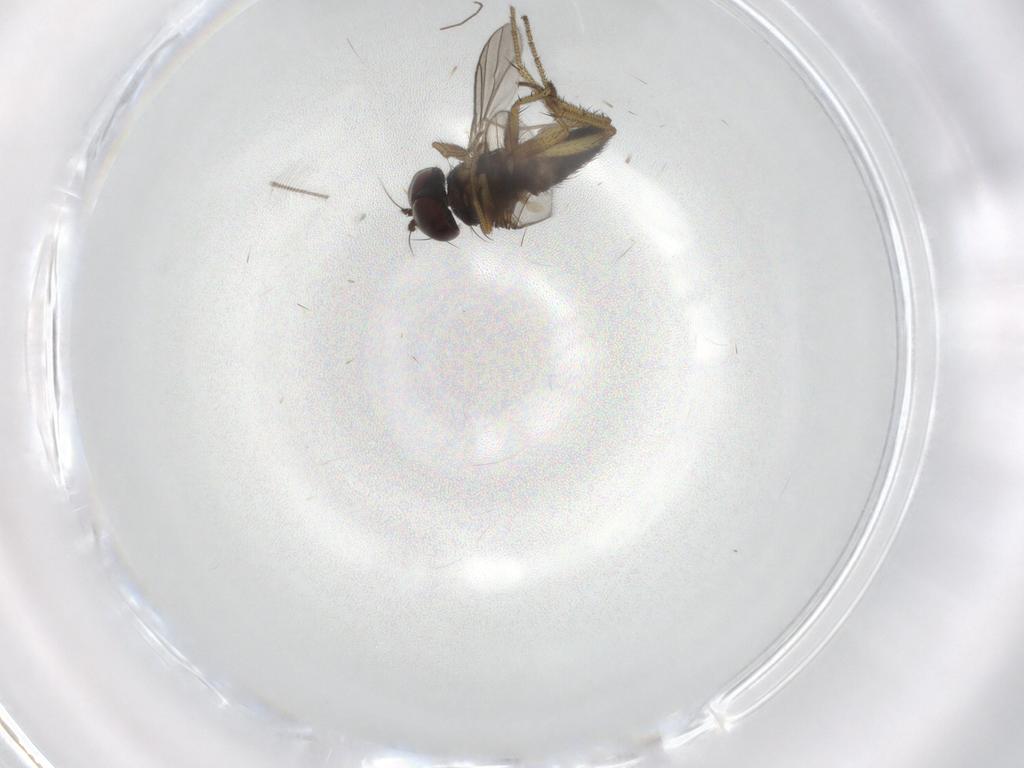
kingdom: Animalia
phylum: Arthropoda
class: Insecta
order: Diptera
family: Dolichopodidae
